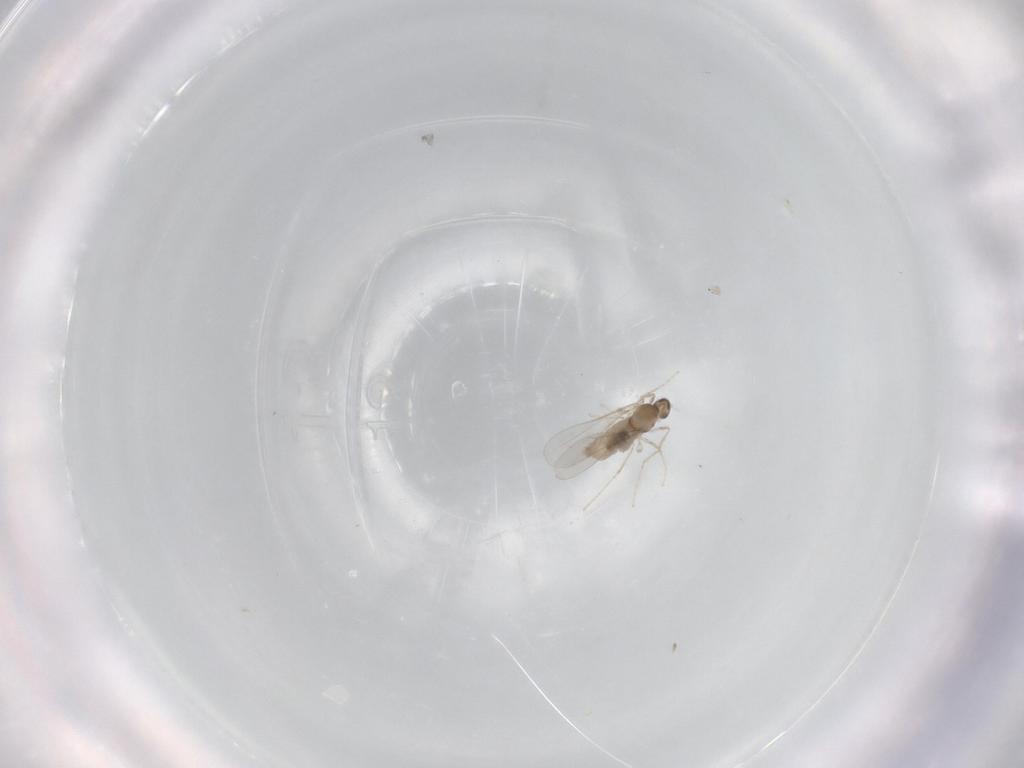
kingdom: Animalia
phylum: Arthropoda
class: Insecta
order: Diptera
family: Cecidomyiidae
